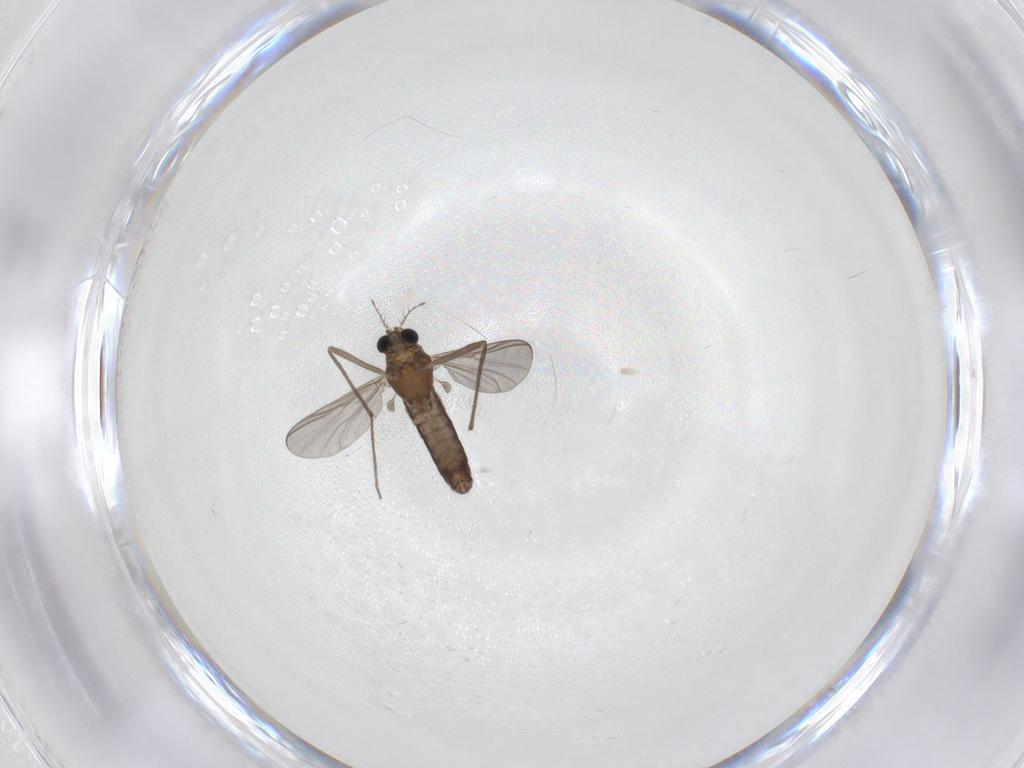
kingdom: Animalia
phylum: Arthropoda
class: Insecta
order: Diptera
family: Chironomidae
